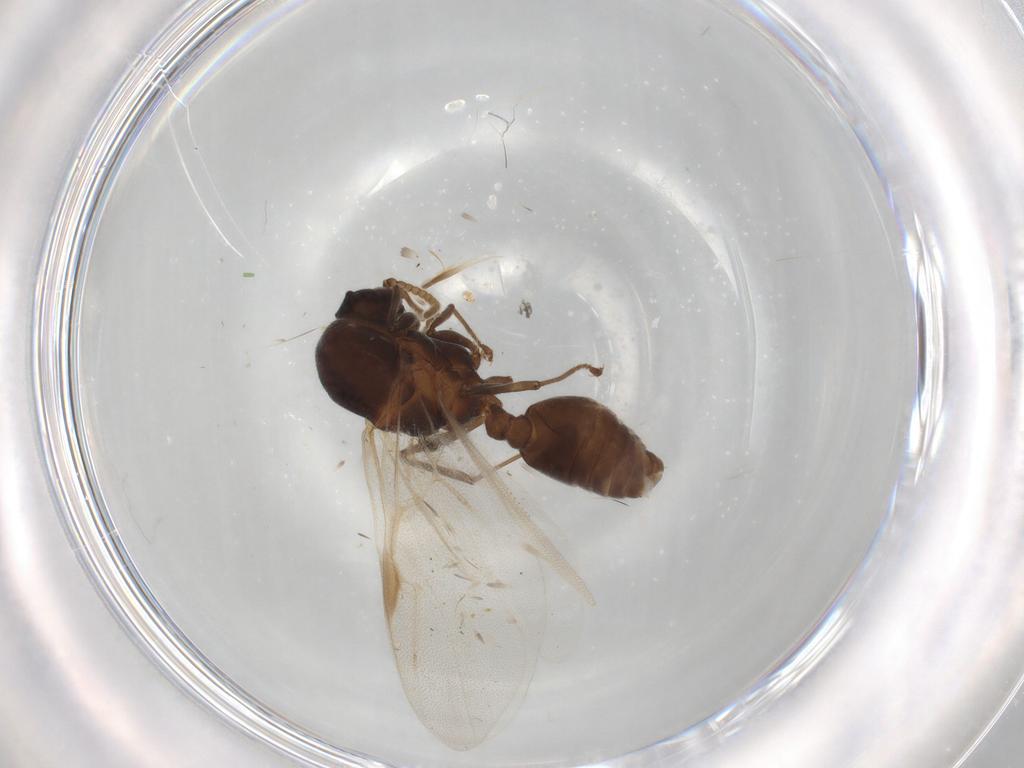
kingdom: Animalia
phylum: Arthropoda
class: Insecta
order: Hymenoptera
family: Formicidae
